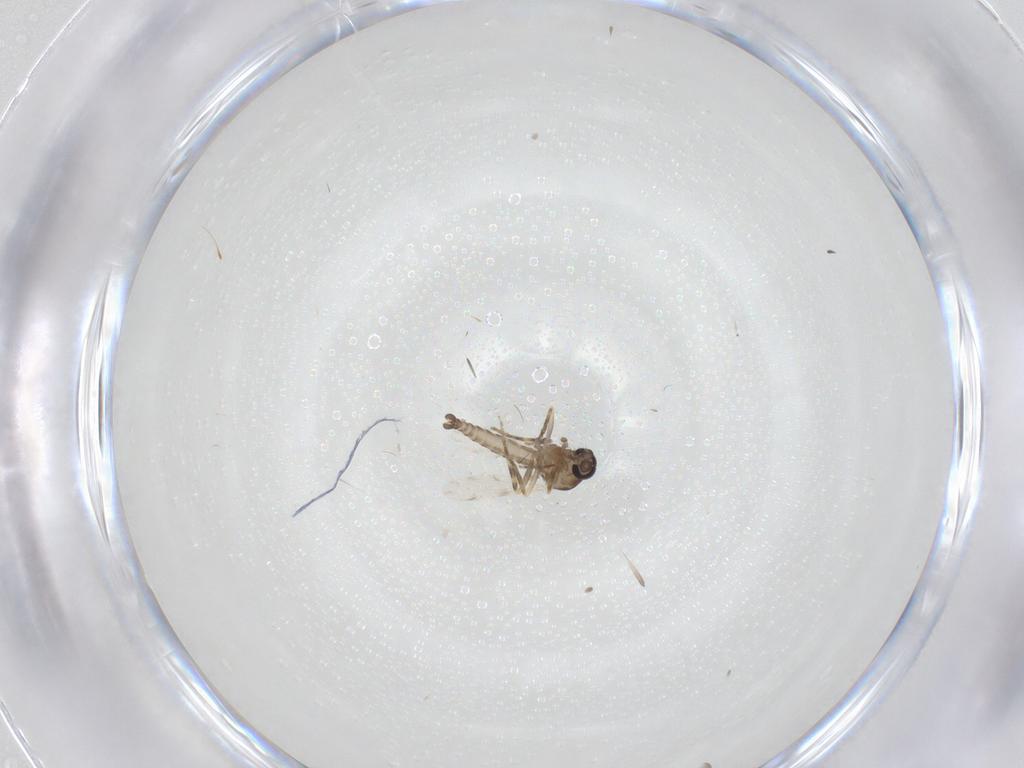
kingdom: Animalia
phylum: Arthropoda
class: Insecta
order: Diptera
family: Ceratopogonidae
